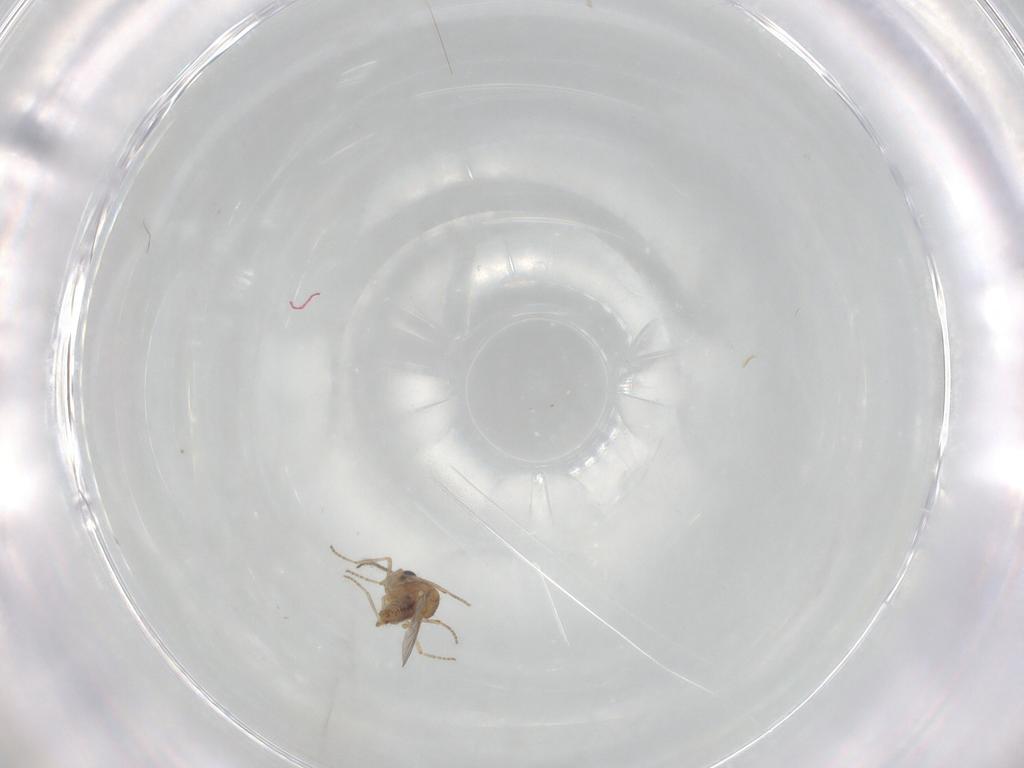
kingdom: Animalia
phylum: Arthropoda
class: Insecta
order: Diptera
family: Ceratopogonidae
